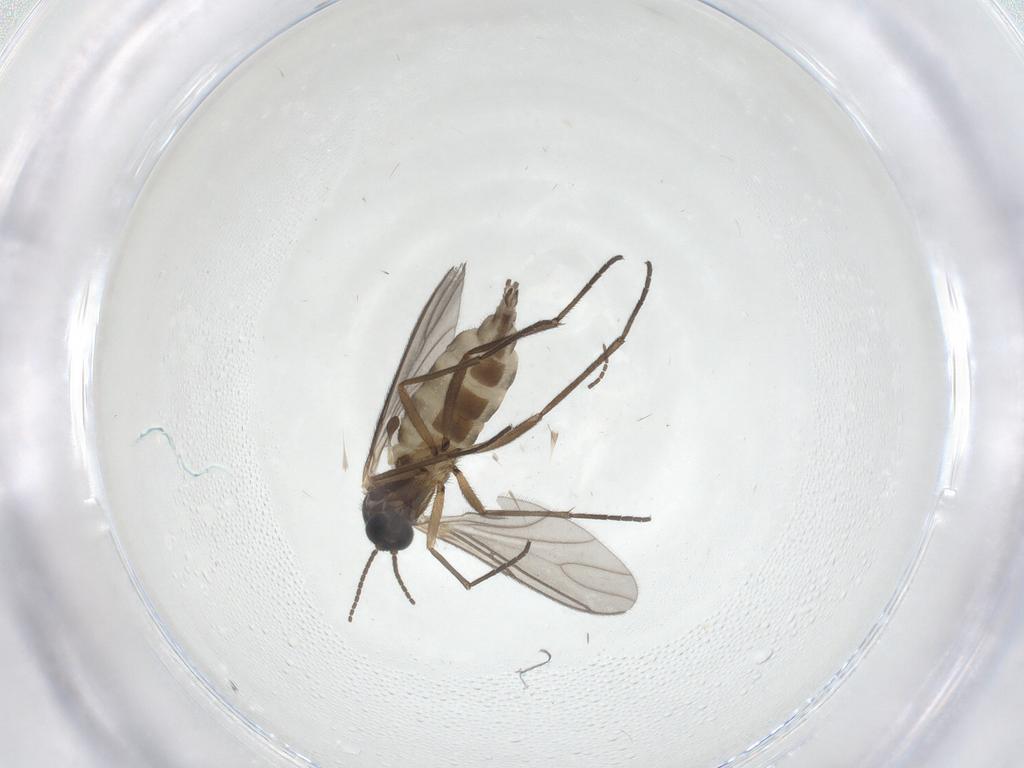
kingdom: Animalia
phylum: Arthropoda
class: Insecta
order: Diptera
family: Sciaridae
